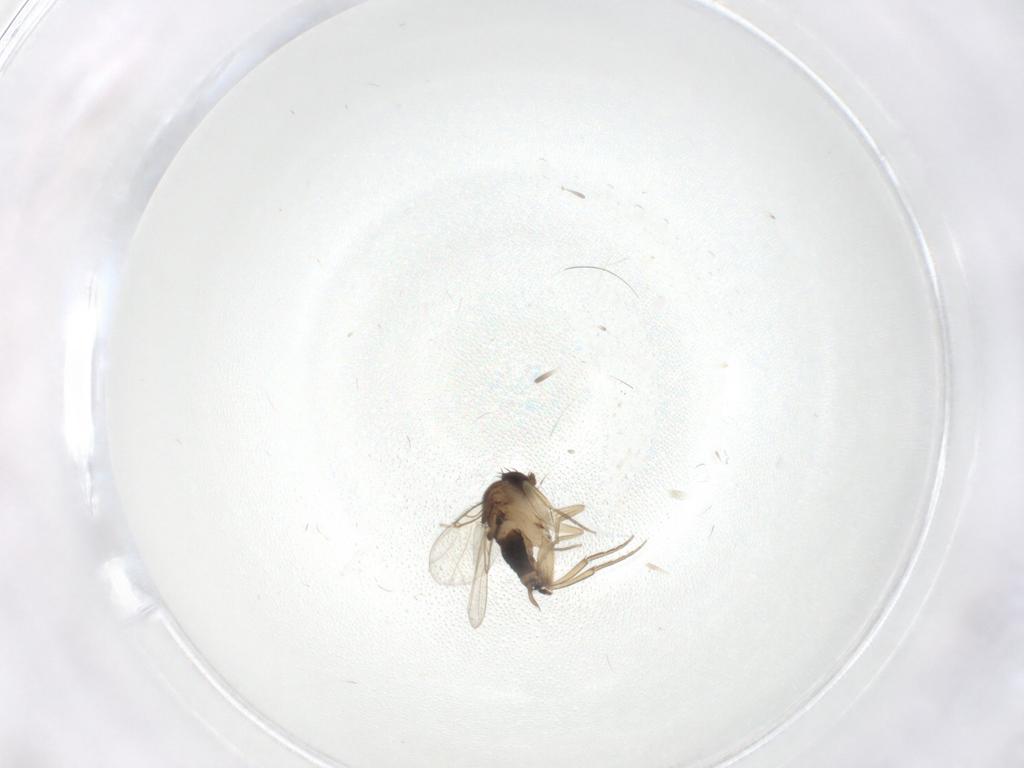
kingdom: Animalia
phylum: Arthropoda
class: Insecta
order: Diptera
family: Phoridae
